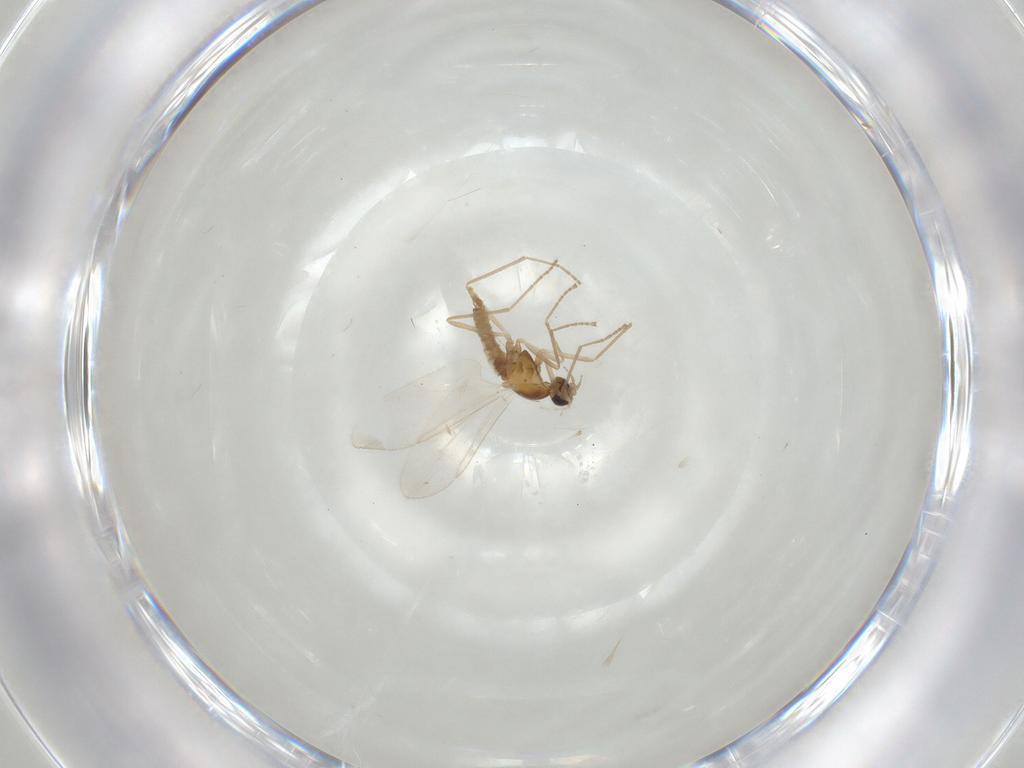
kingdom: Animalia
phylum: Arthropoda
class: Insecta
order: Diptera
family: Cecidomyiidae
